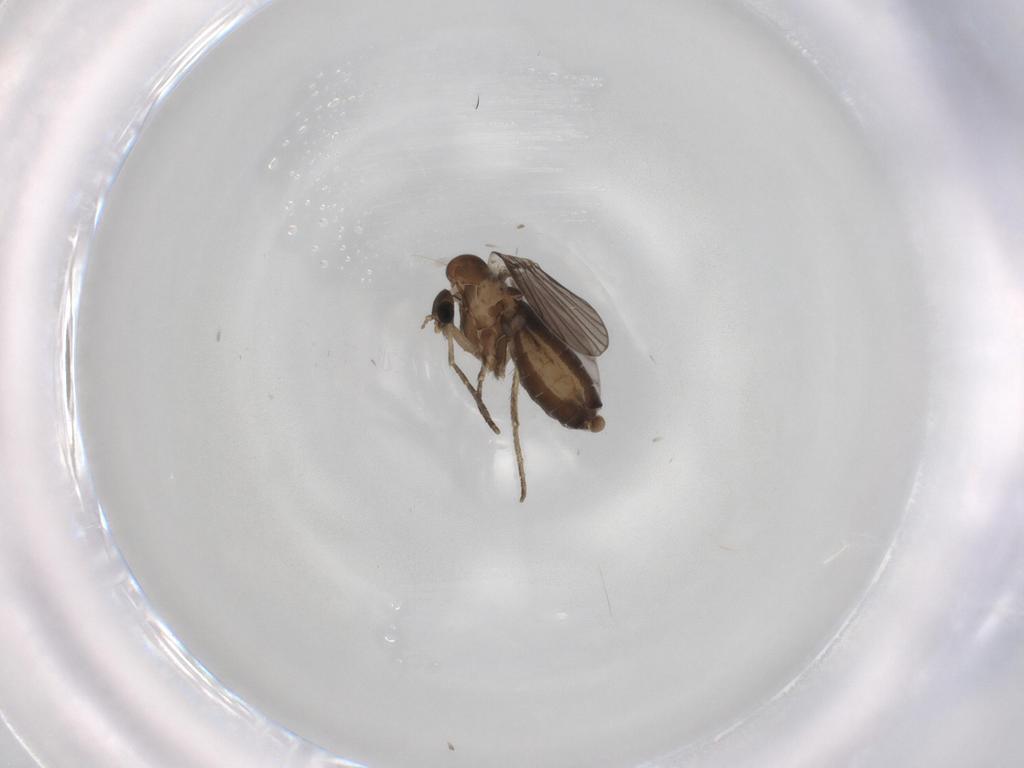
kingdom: Animalia
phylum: Arthropoda
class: Insecta
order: Diptera
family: Psychodidae
